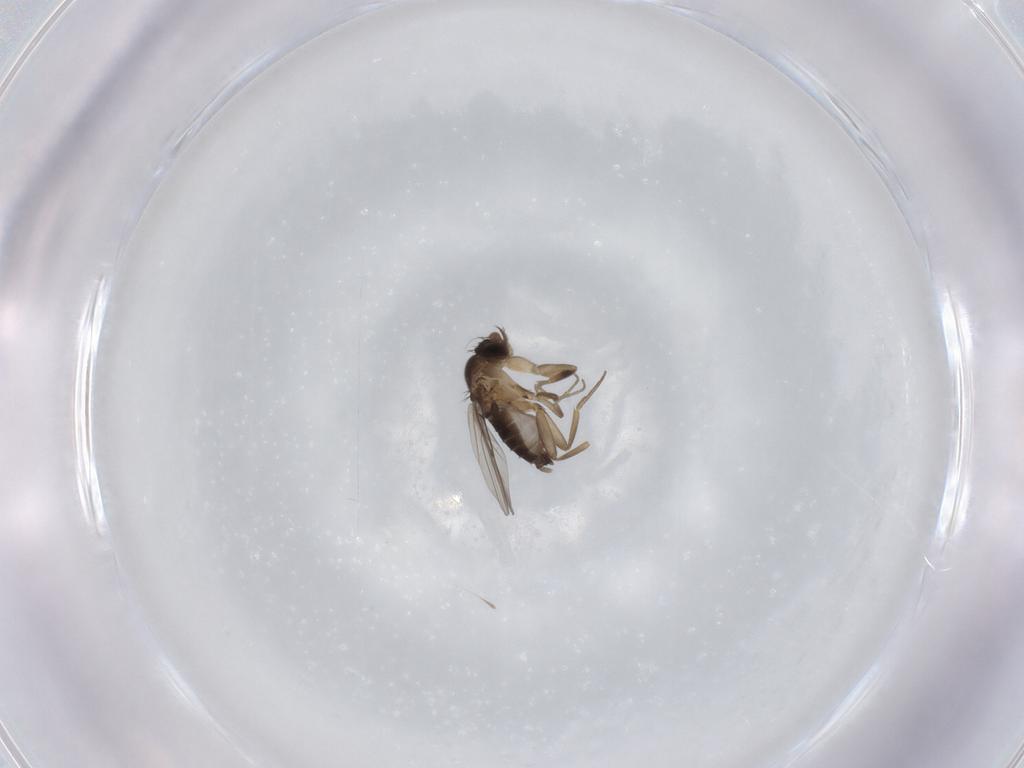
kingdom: Animalia
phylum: Arthropoda
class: Insecta
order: Diptera
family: Phoridae
